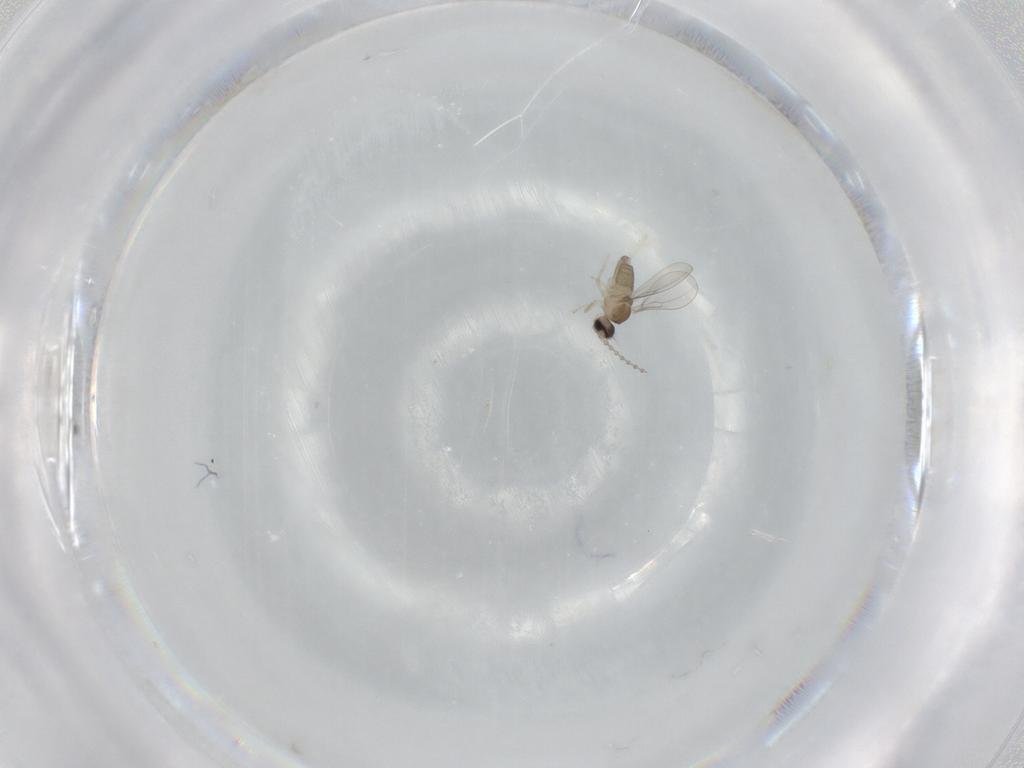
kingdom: Animalia
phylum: Arthropoda
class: Insecta
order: Diptera
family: Cecidomyiidae
